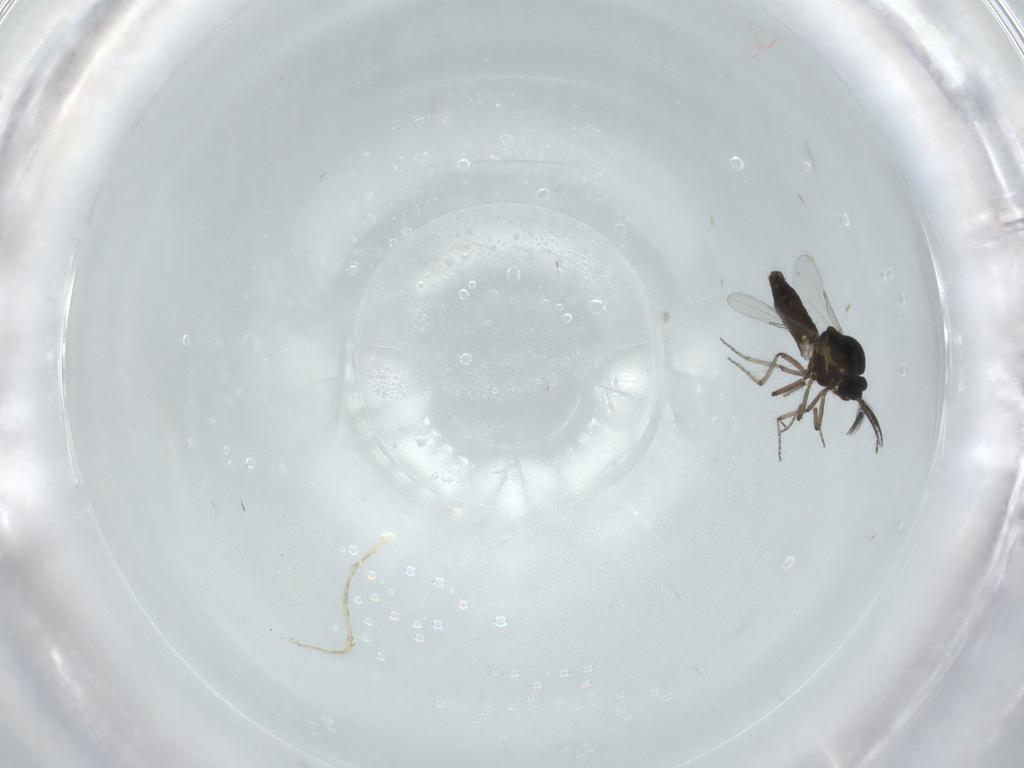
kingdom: Animalia
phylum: Arthropoda
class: Insecta
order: Diptera
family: Ceratopogonidae
